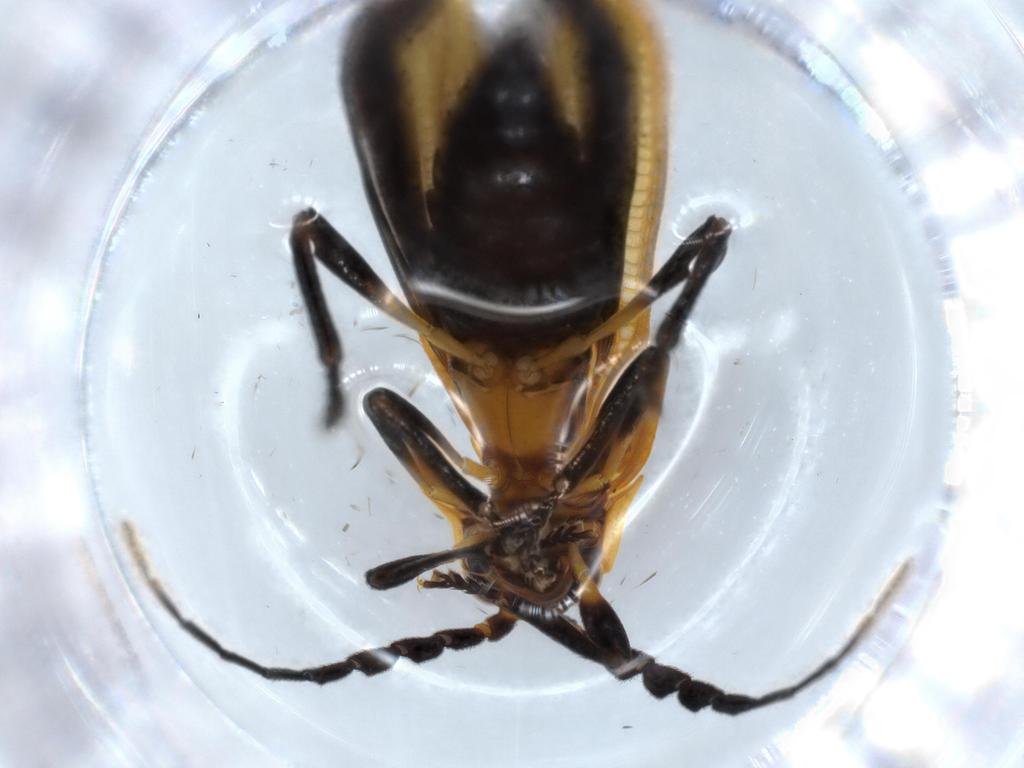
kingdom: Animalia
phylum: Arthropoda
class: Insecta
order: Coleoptera
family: Lycidae
